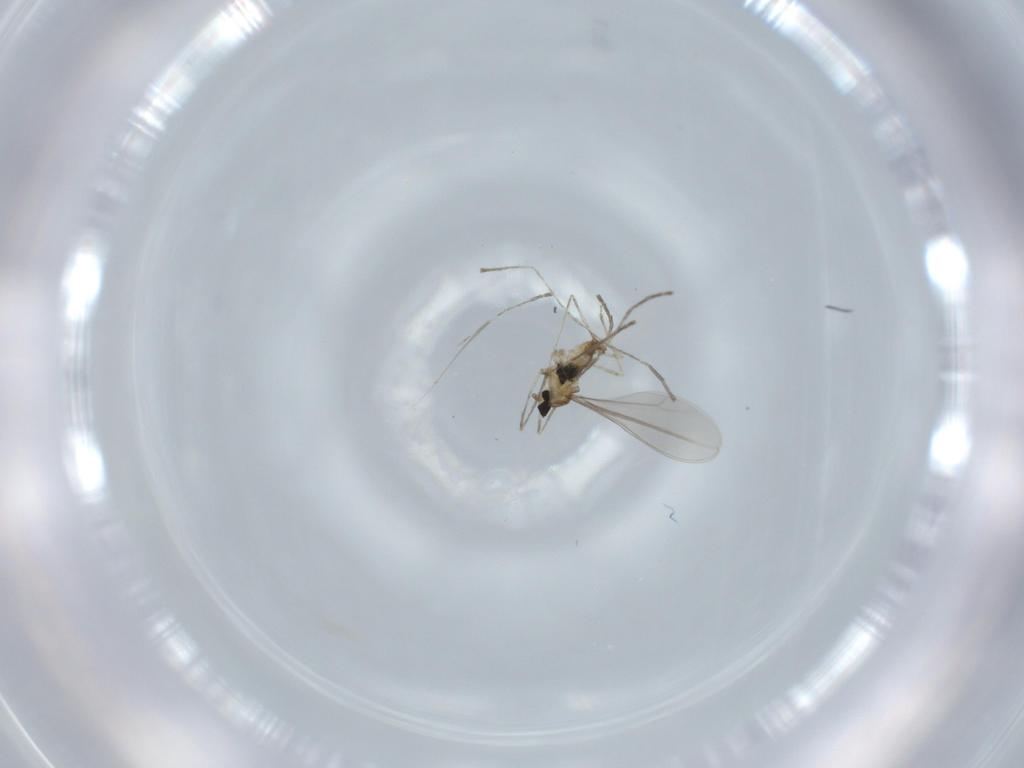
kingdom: Animalia
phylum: Arthropoda
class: Insecta
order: Diptera
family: Cecidomyiidae
